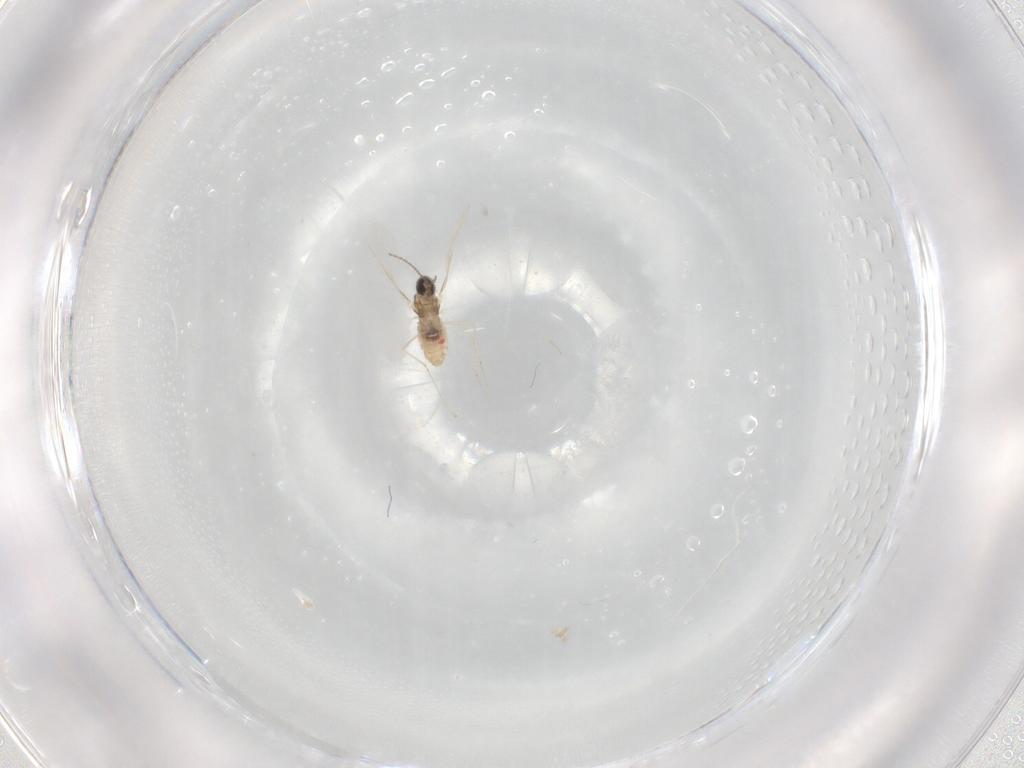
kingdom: Animalia
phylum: Arthropoda
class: Insecta
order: Diptera
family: Cecidomyiidae
